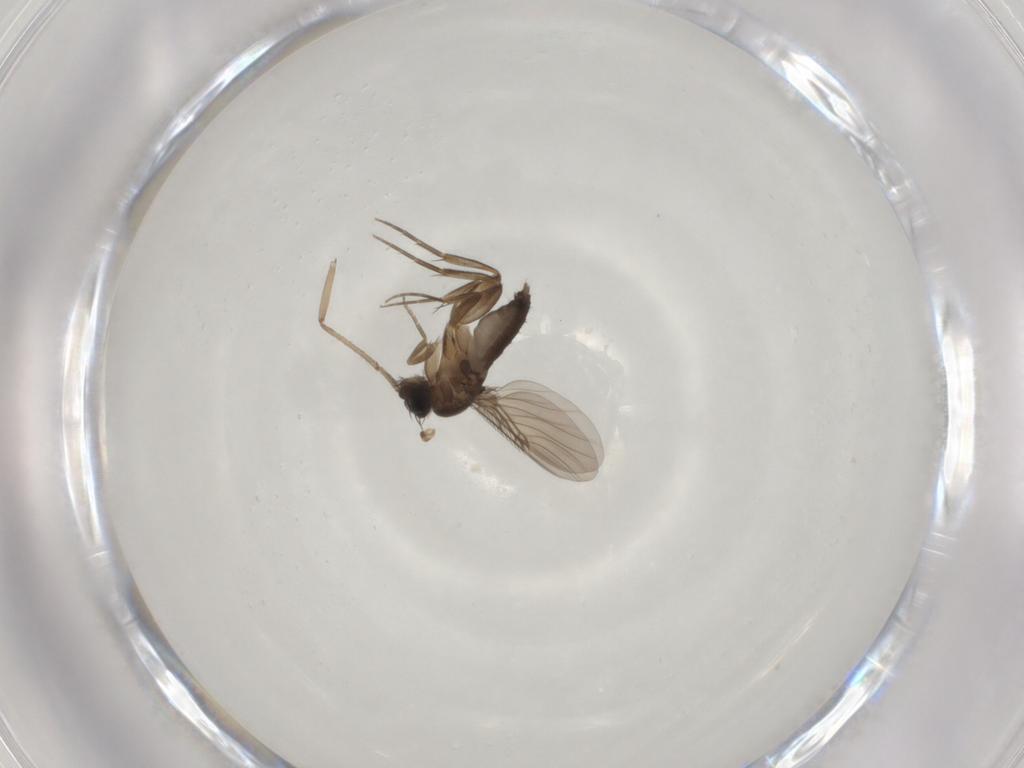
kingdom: Animalia
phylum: Arthropoda
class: Insecta
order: Diptera
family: Phoridae
